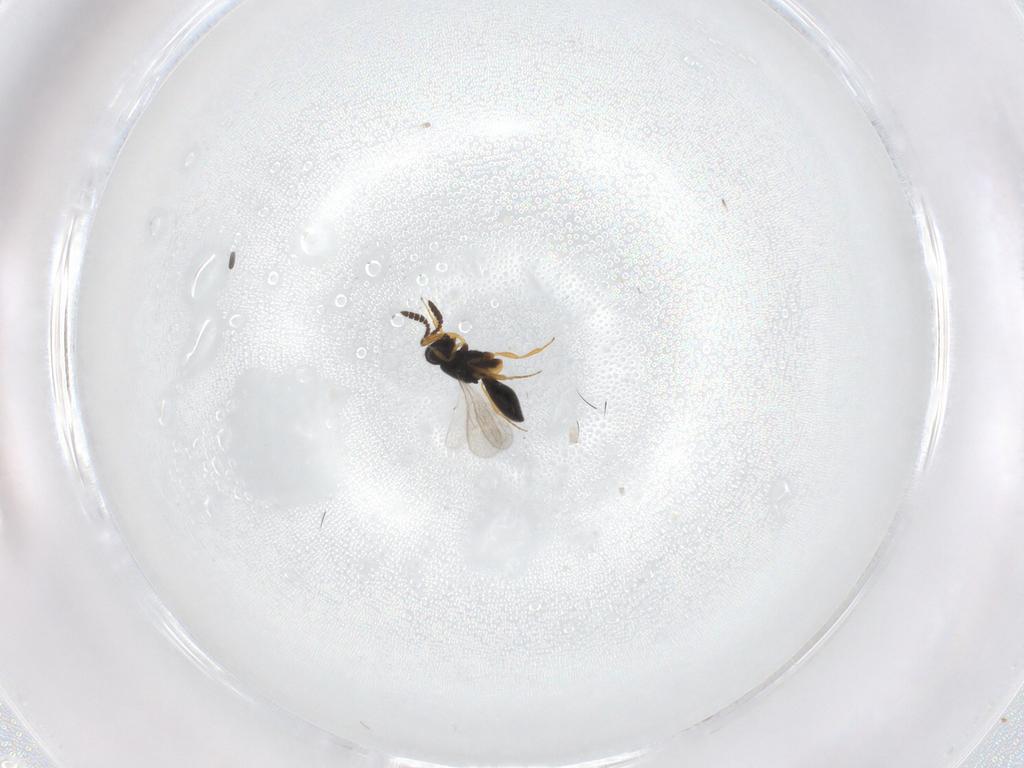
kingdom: Animalia
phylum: Arthropoda
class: Insecta
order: Hymenoptera
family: Scelionidae
